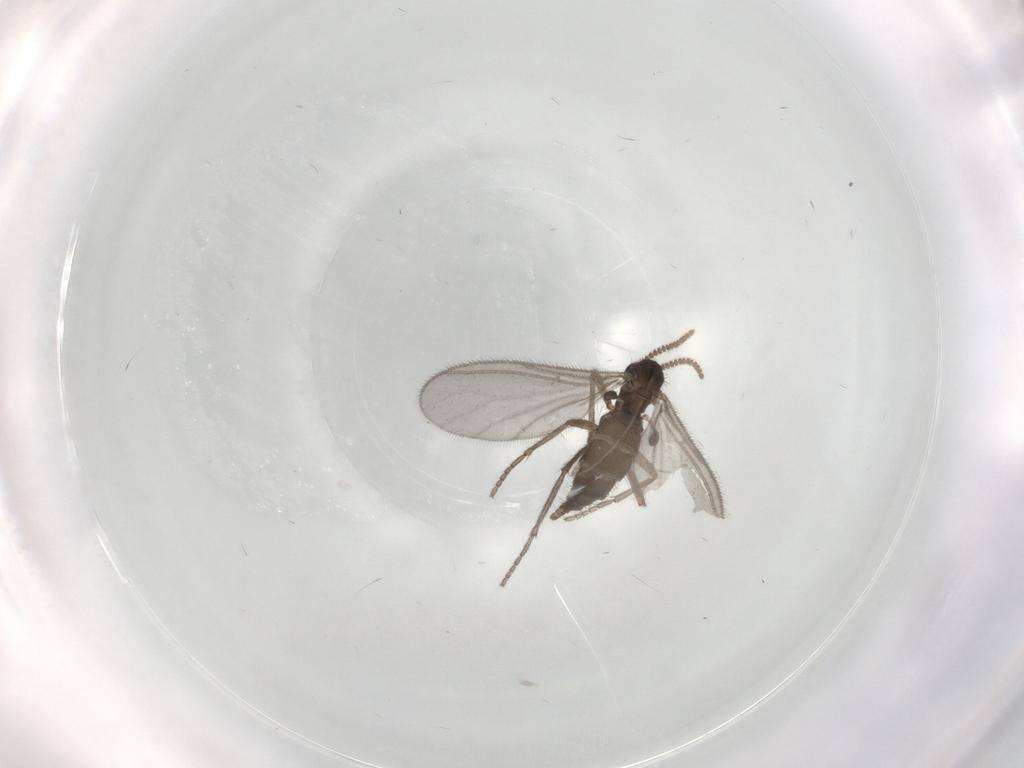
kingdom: Animalia
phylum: Arthropoda
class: Insecta
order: Diptera
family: Sciaridae
